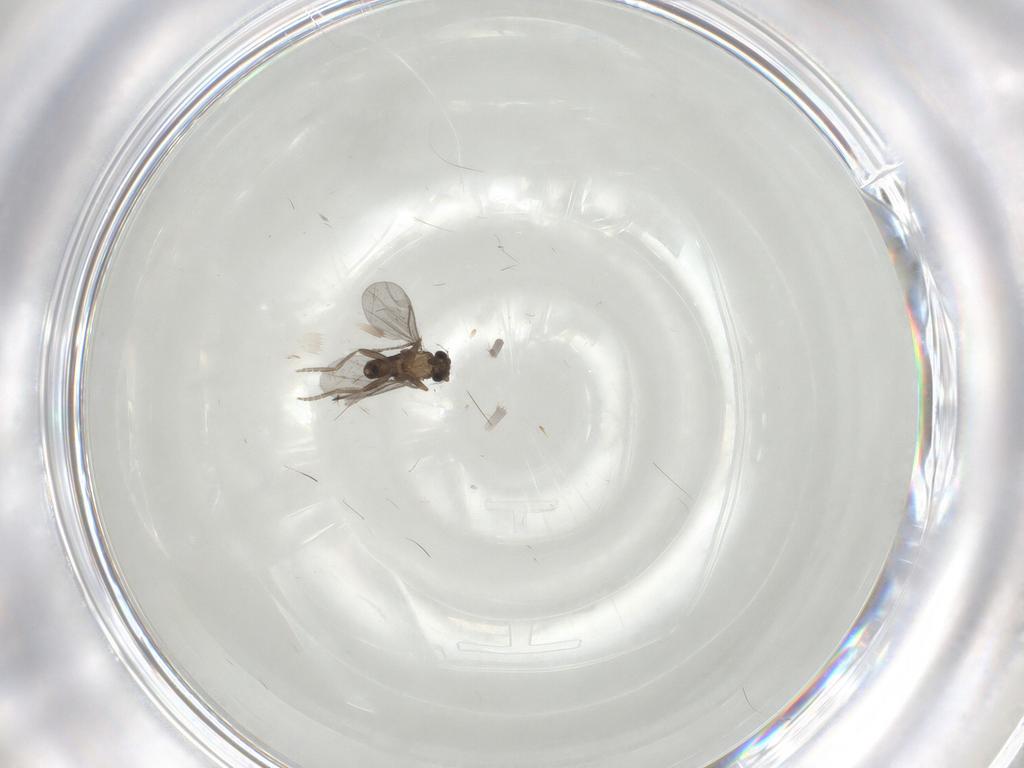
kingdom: Animalia
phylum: Arthropoda
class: Insecta
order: Diptera
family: Sciaridae
